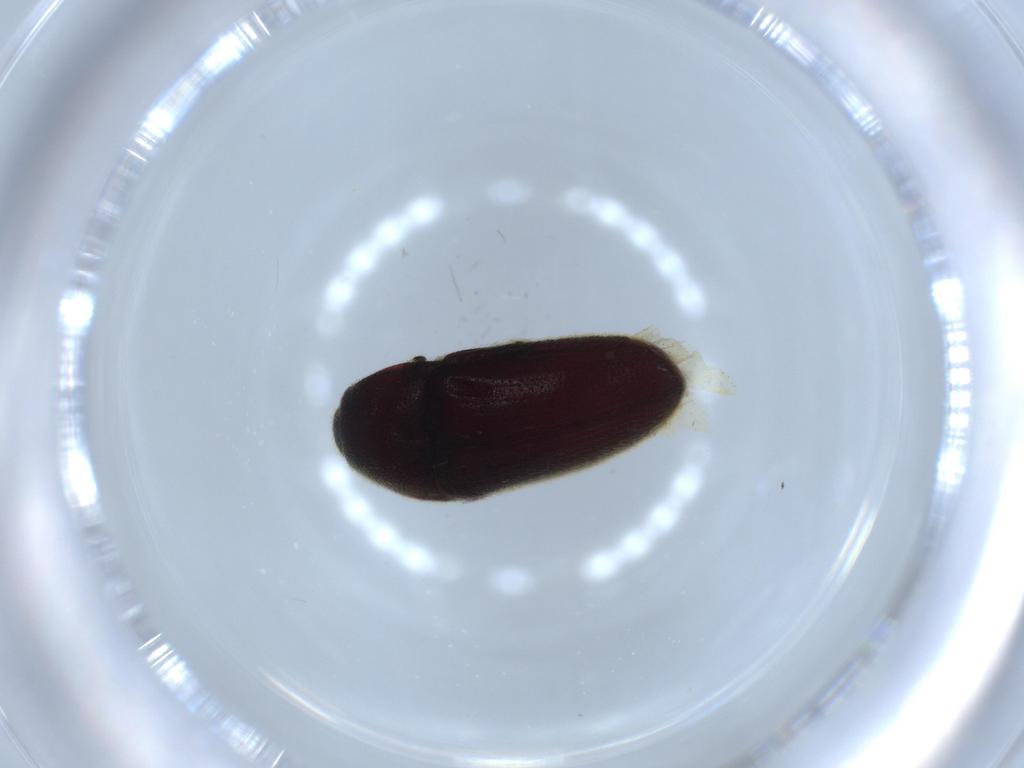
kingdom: Animalia
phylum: Arthropoda
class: Insecta
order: Coleoptera
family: Throscidae
